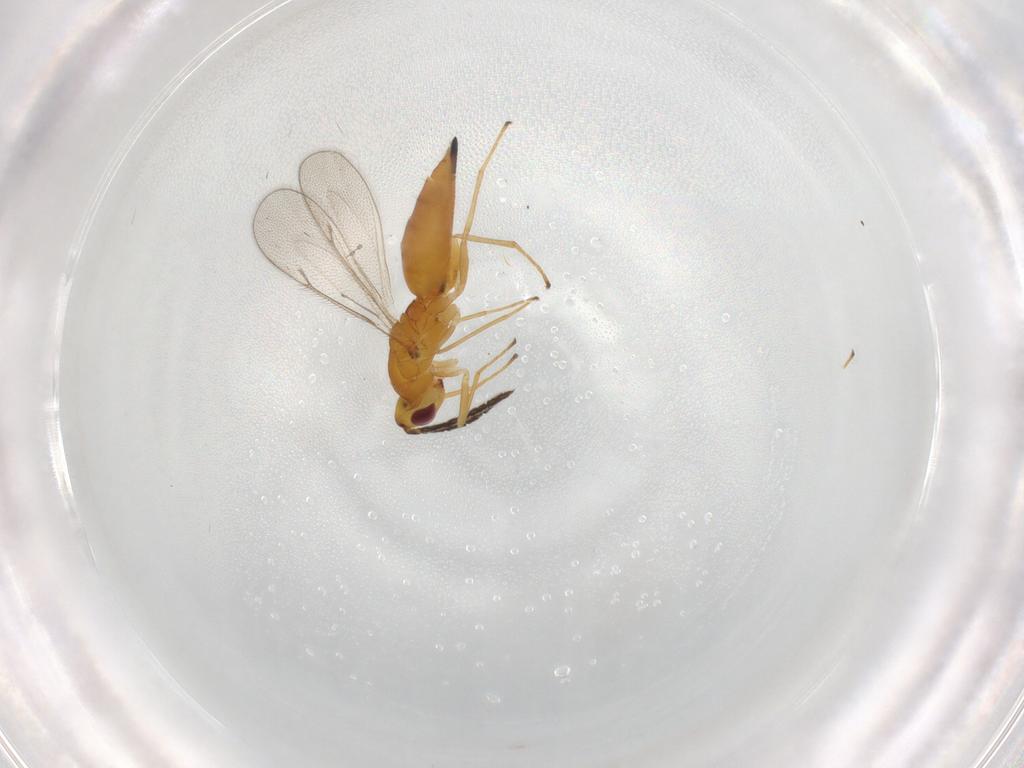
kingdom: Animalia
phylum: Arthropoda
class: Insecta
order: Hymenoptera
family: Eulophidae
